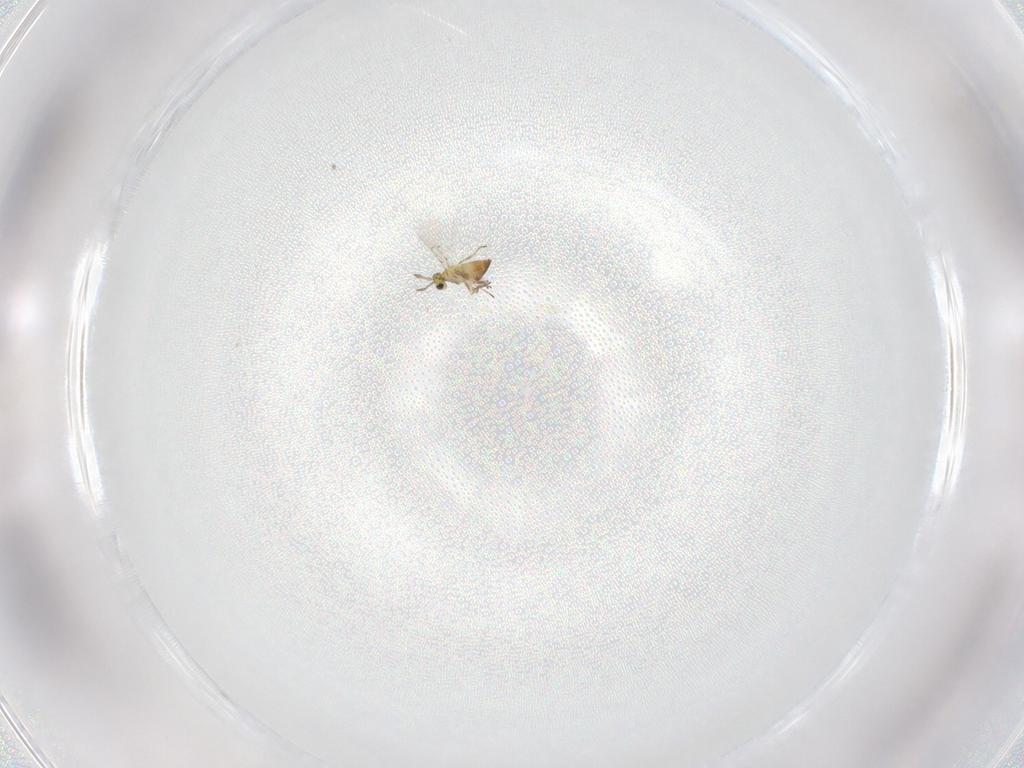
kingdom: Animalia
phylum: Arthropoda
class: Insecta
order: Hymenoptera
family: Trichogrammatidae
